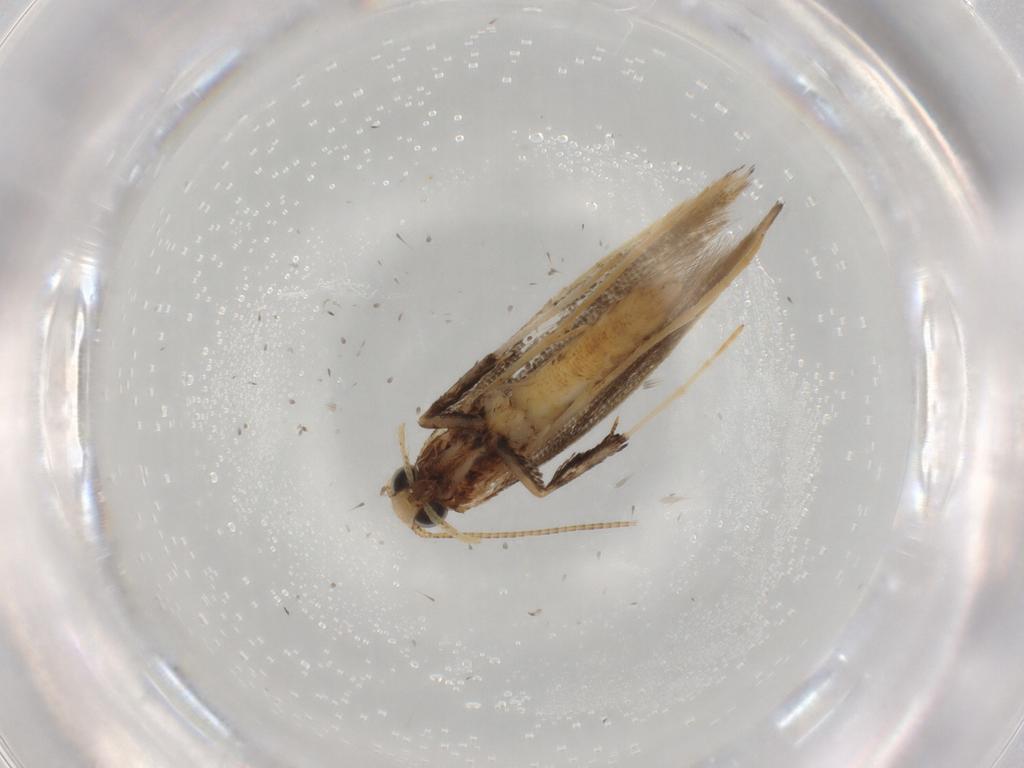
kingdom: Animalia
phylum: Arthropoda
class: Insecta
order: Lepidoptera
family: Gracillariidae
